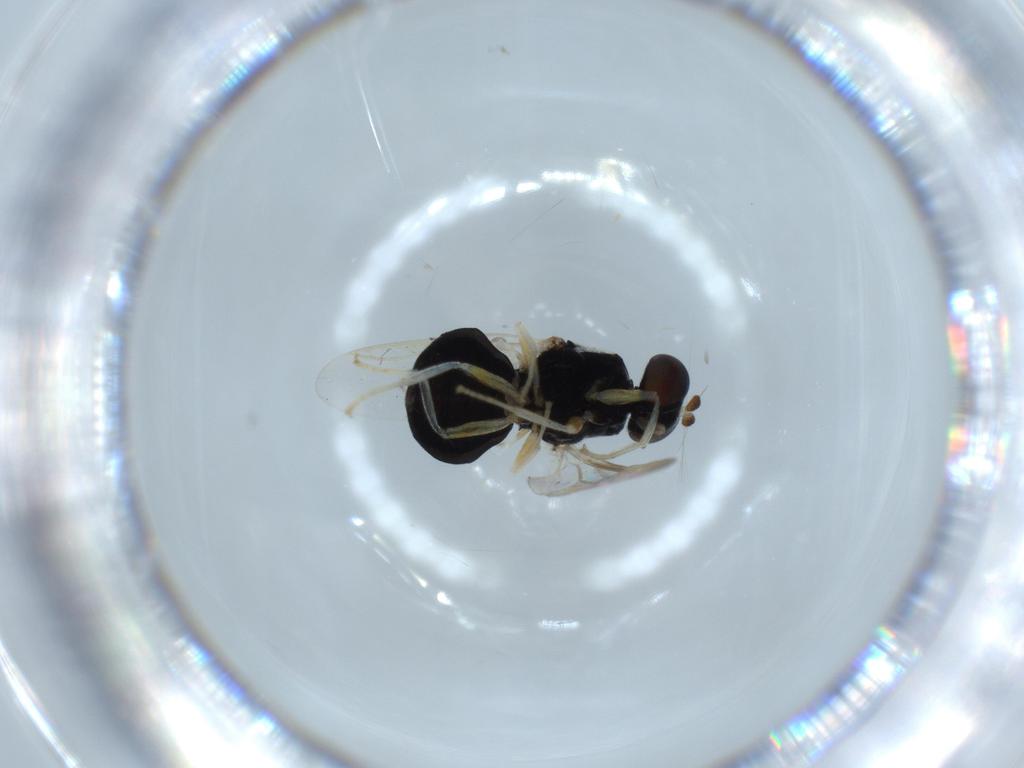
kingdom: Animalia
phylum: Arthropoda
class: Insecta
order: Diptera
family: Stratiomyidae
